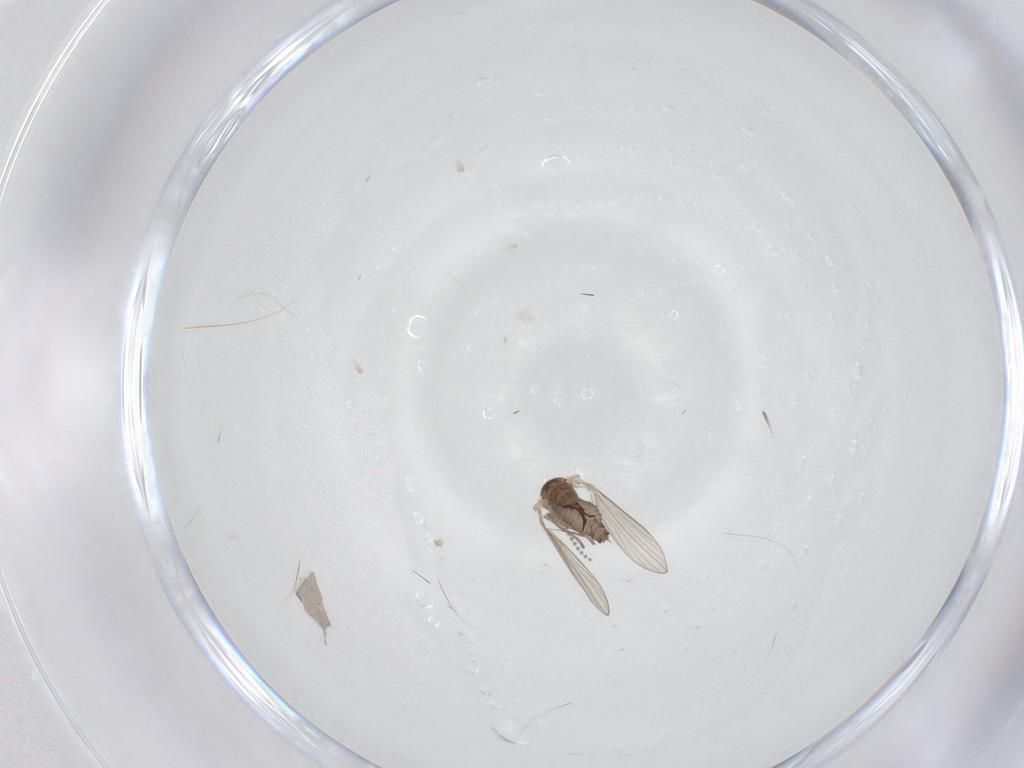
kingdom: Animalia
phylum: Arthropoda
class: Insecta
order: Diptera
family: Psychodidae
